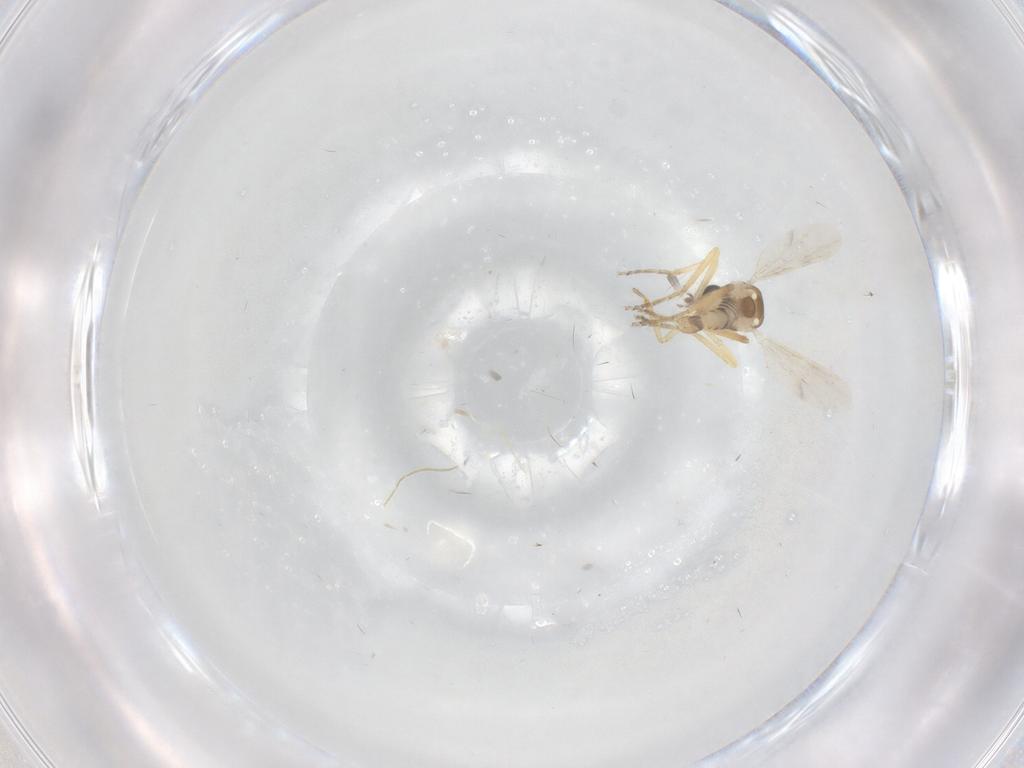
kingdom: Animalia
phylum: Arthropoda
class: Insecta
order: Diptera
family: Ceratopogonidae
